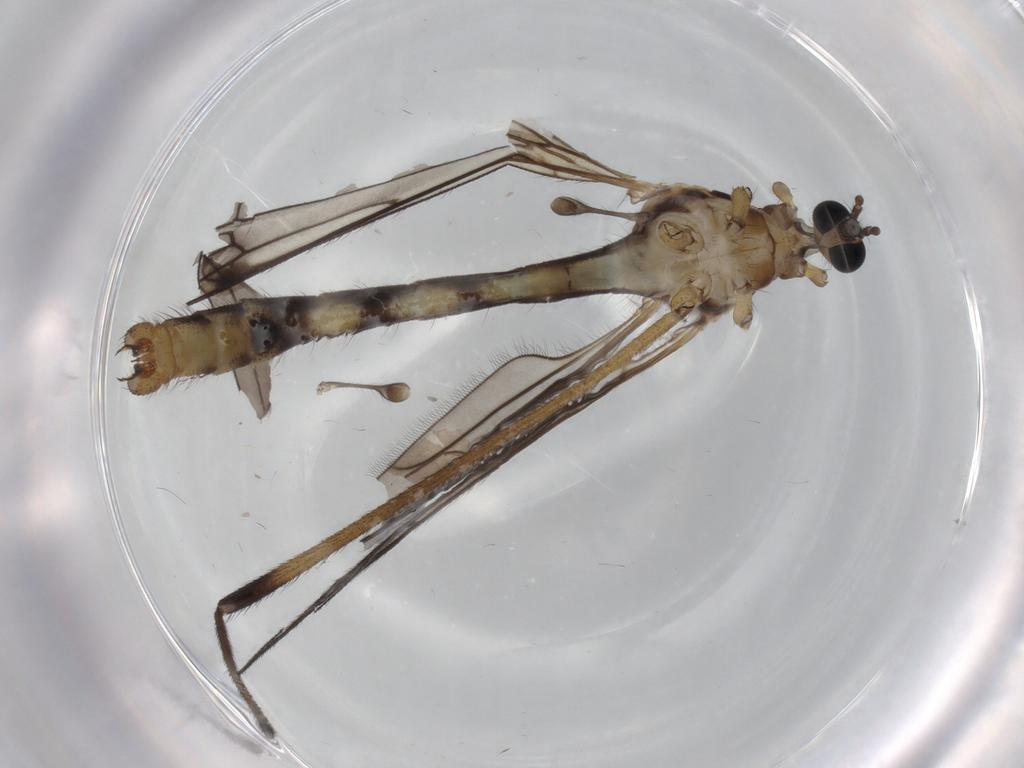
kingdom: Animalia
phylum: Arthropoda
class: Insecta
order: Diptera
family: Limoniidae
